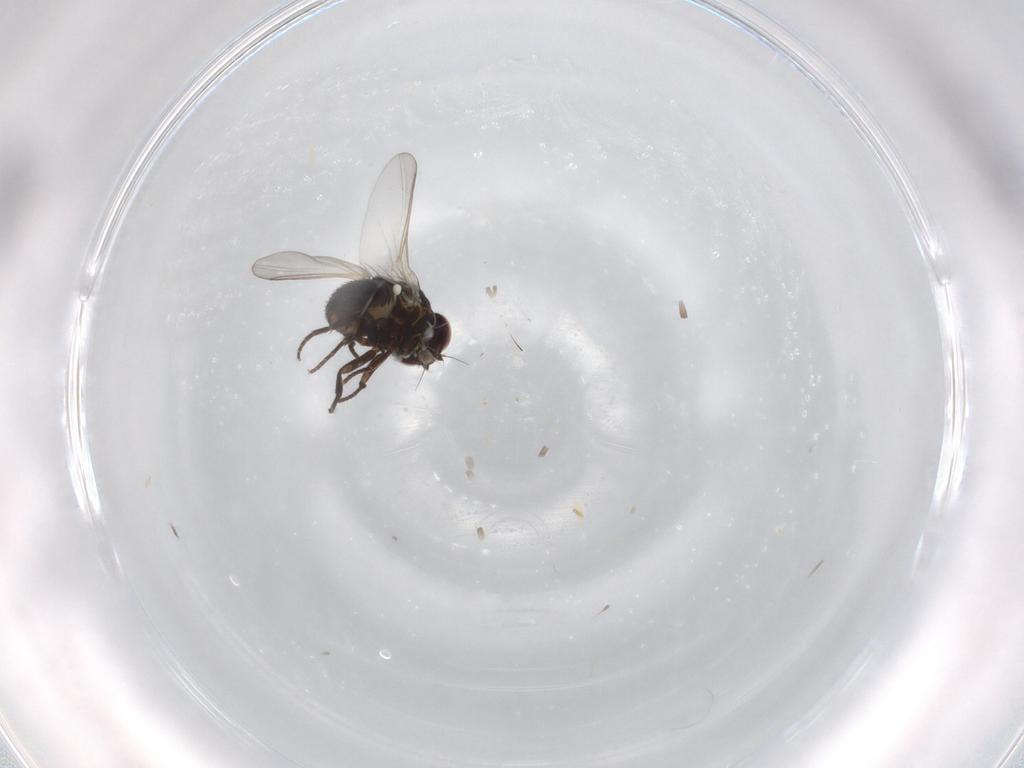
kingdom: Animalia
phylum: Arthropoda
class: Insecta
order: Diptera
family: Agromyzidae
